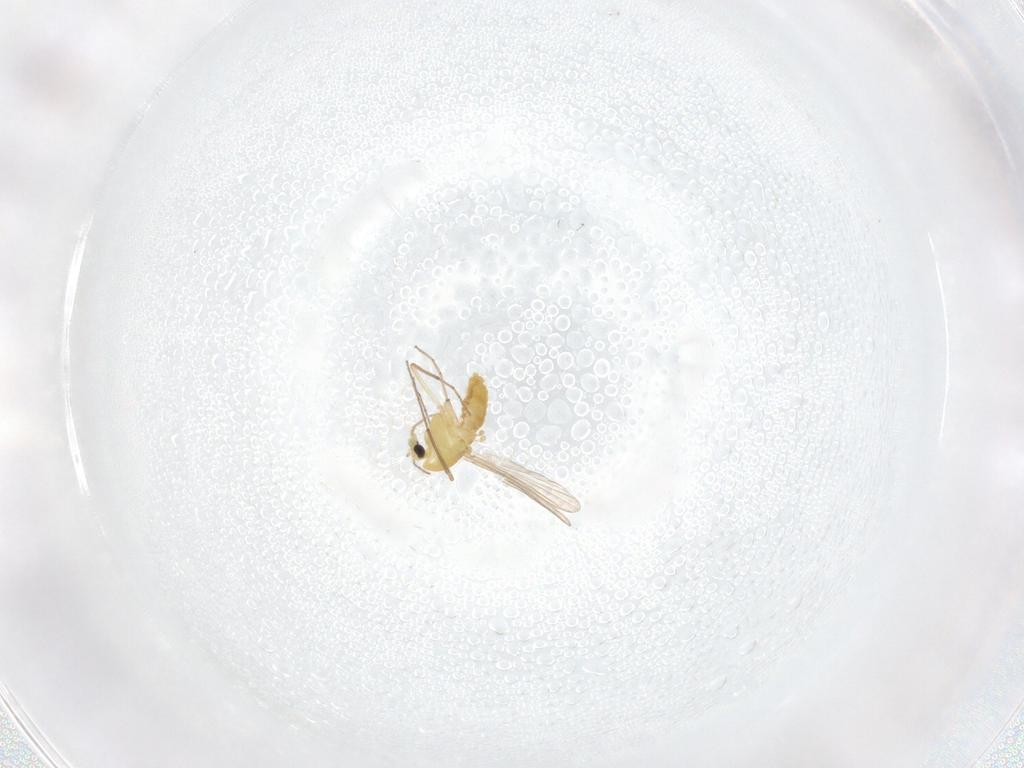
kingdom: Animalia
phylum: Arthropoda
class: Insecta
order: Diptera
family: Chironomidae
